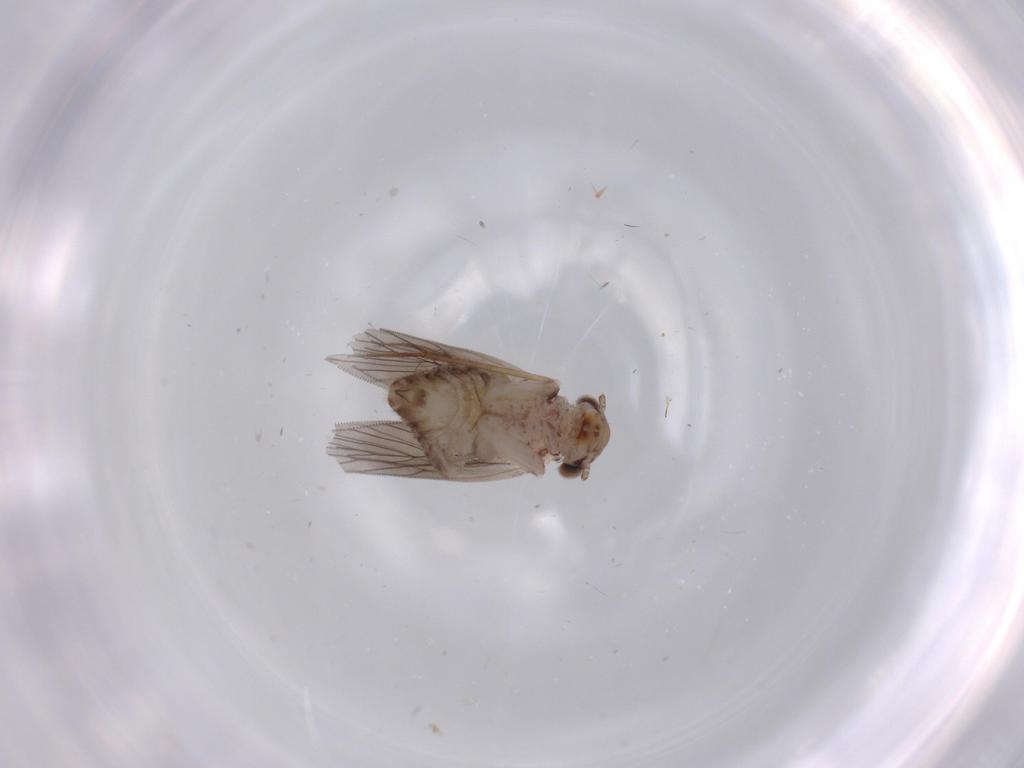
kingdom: Animalia
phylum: Arthropoda
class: Insecta
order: Psocodea
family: Lepidopsocidae
